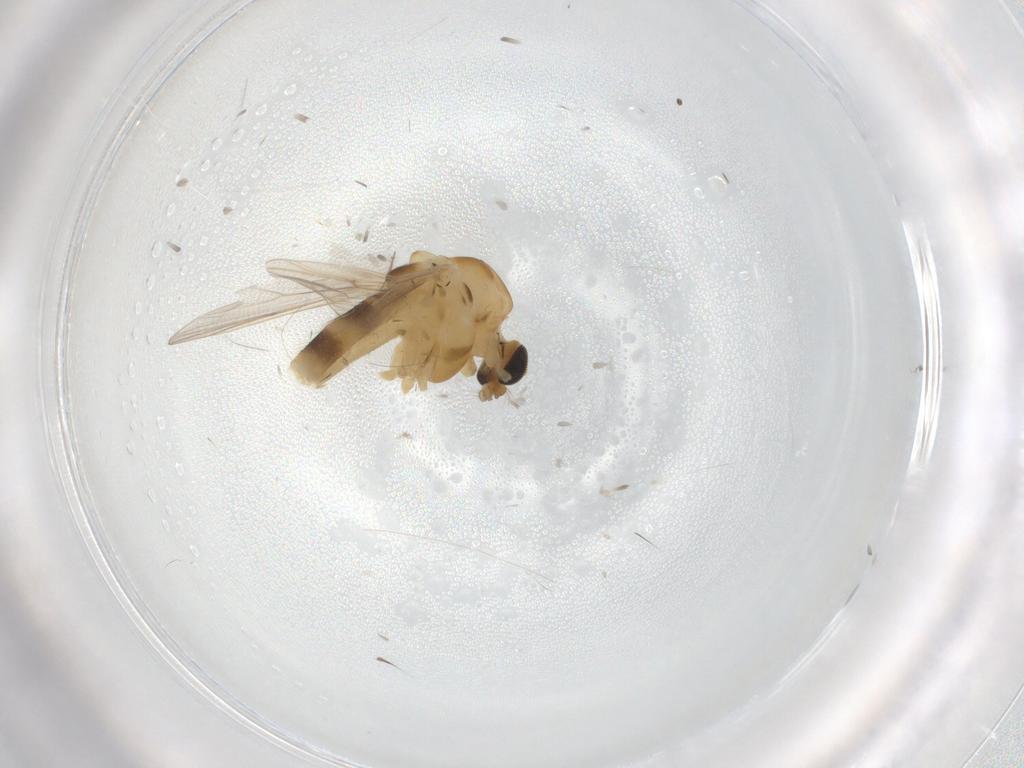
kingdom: Animalia
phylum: Arthropoda
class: Insecta
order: Diptera
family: Chironomidae
